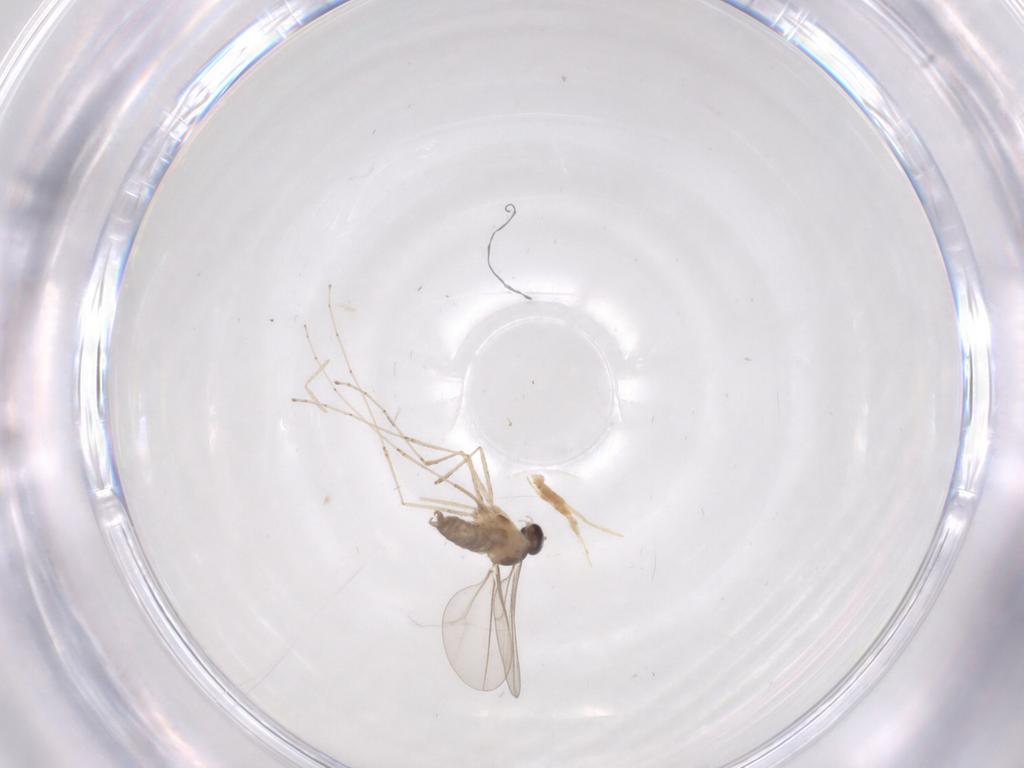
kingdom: Animalia
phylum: Arthropoda
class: Insecta
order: Diptera
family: Cecidomyiidae
